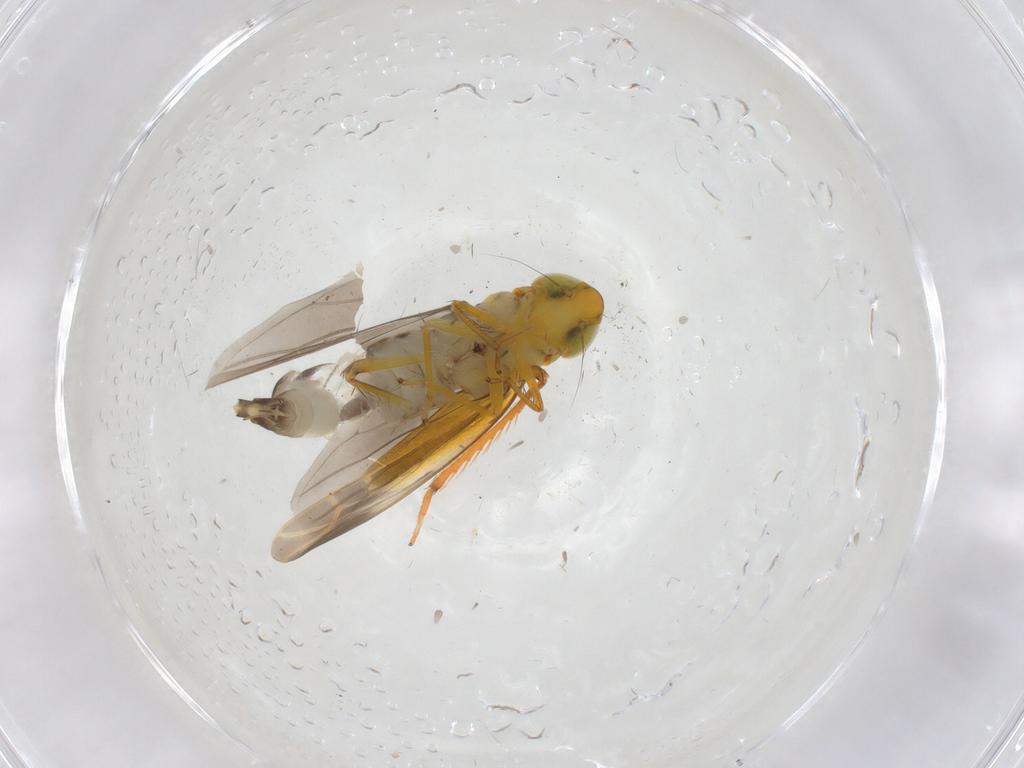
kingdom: Animalia
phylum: Arthropoda
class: Insecta
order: Hemiptera
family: Cicadellidae
